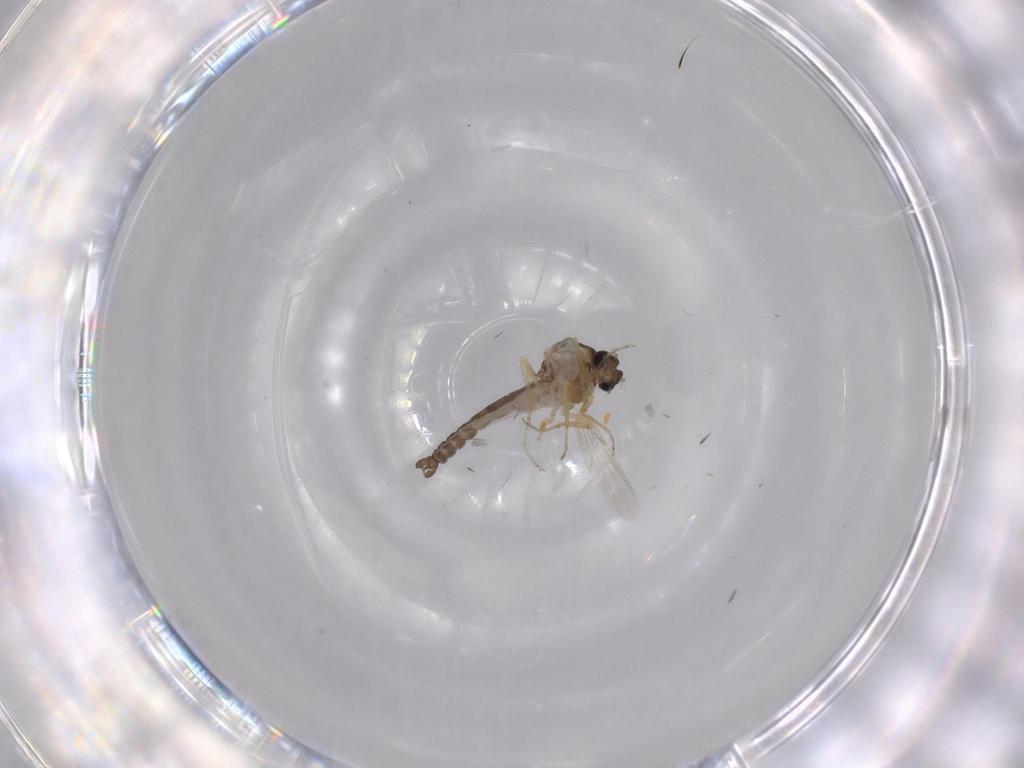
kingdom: Animalia
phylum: Arthropoda
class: Insecta
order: Diptera
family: Ceratopogonidae
